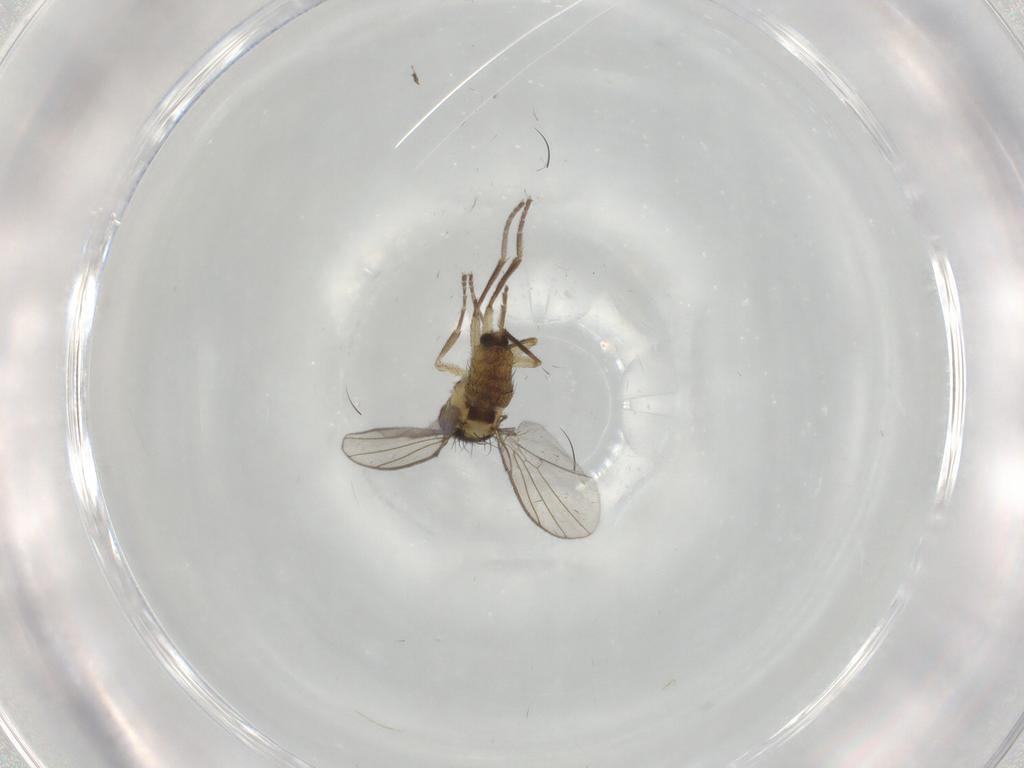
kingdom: Animalia
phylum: Arthropoda
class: Insecta
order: Diptera
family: Agromyzidae
